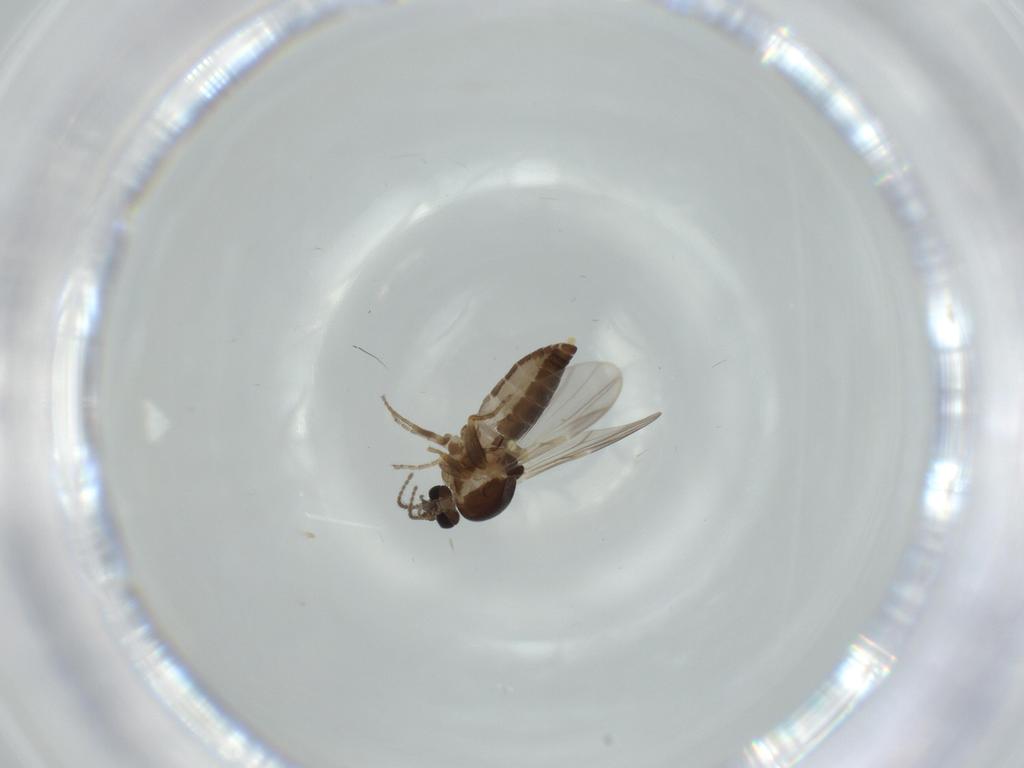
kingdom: Animalia
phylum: Arthropoda
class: Insecta
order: Diptera
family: Ceratopogonidae
